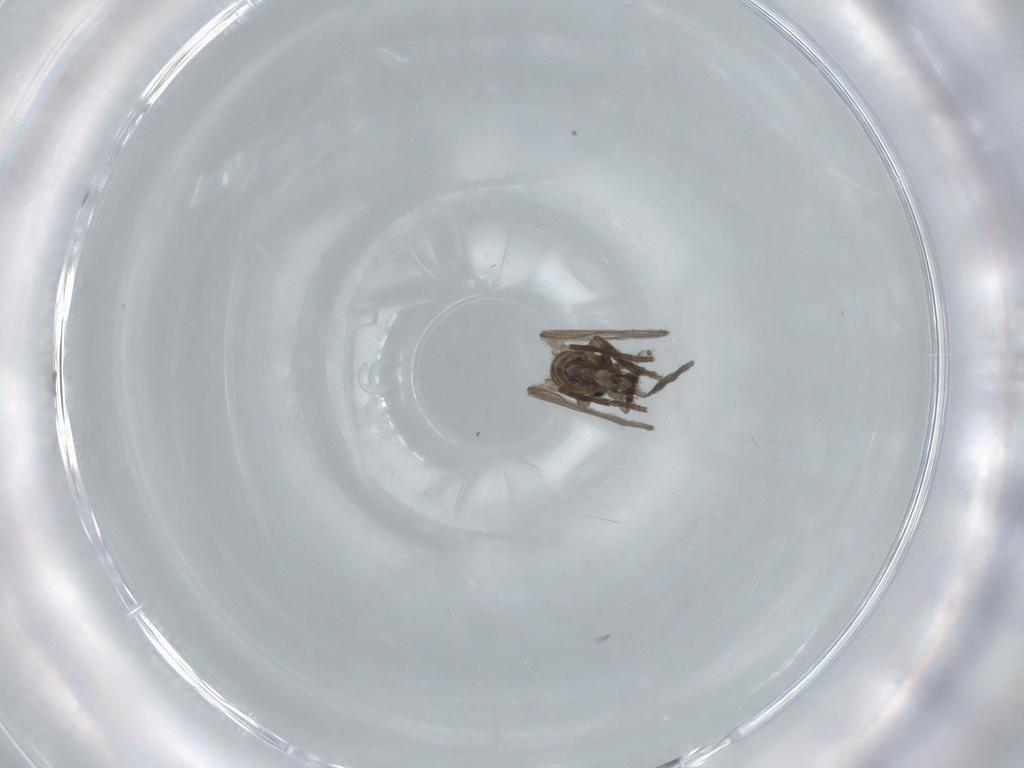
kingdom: Animalia
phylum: Arthropoda
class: Insecta
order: Diptera
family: Psychodidae
